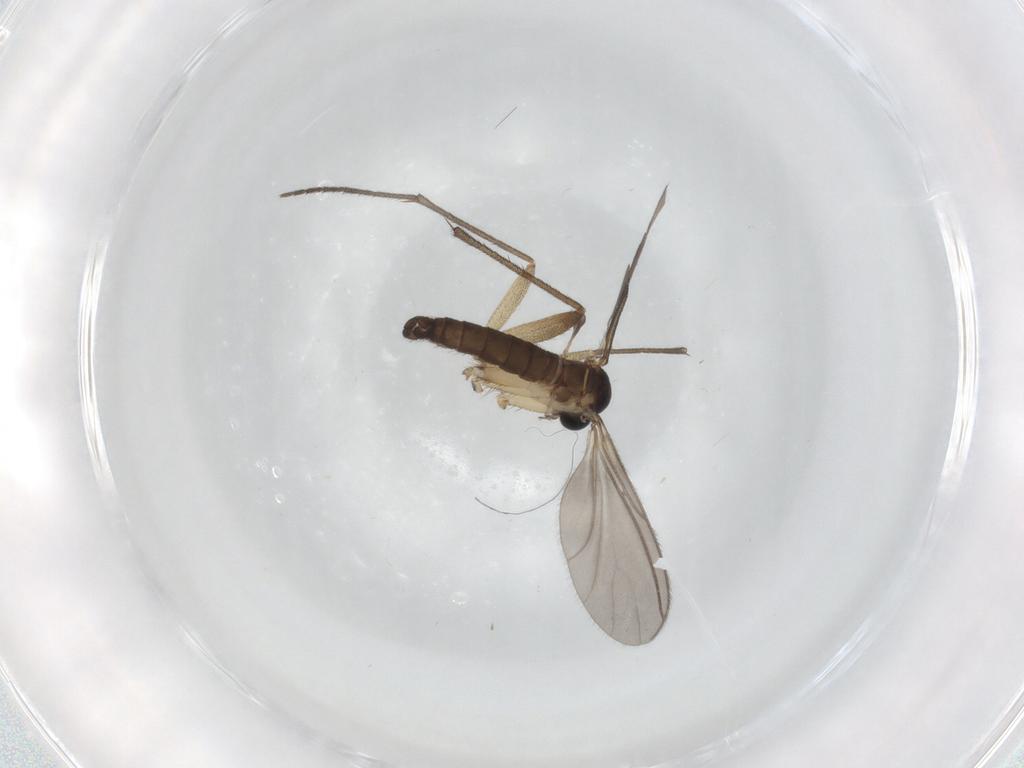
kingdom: Animalia
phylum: Arthropoda
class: Insecta
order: Diptera
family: Sciaridae
